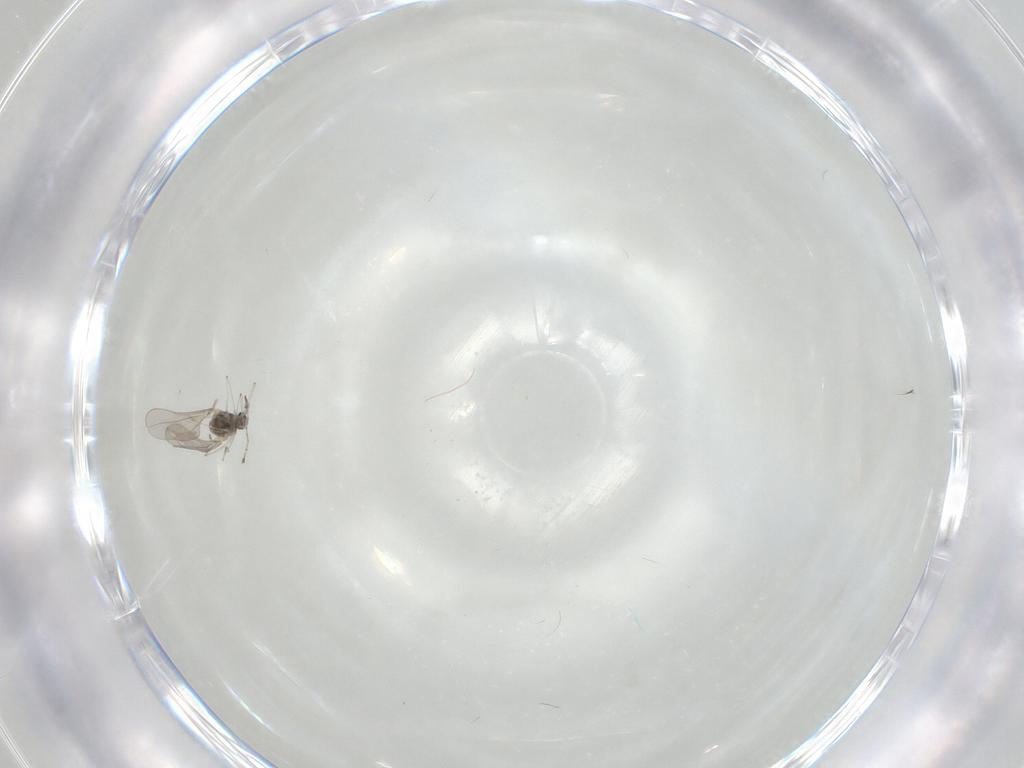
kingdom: Animalia
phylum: Arthropoda
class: Insecta
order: Diptera
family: Cecidomyiidae
